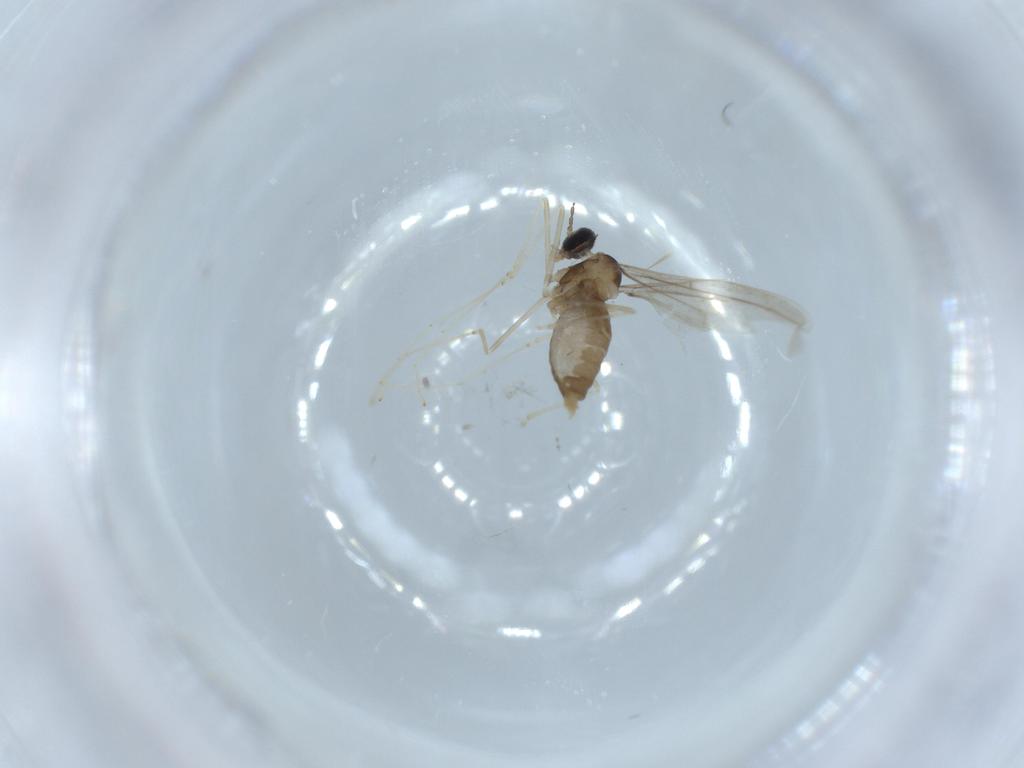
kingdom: Animalia
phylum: Arthropoda
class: Insecta
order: Diptera
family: Cecidomyiidae
